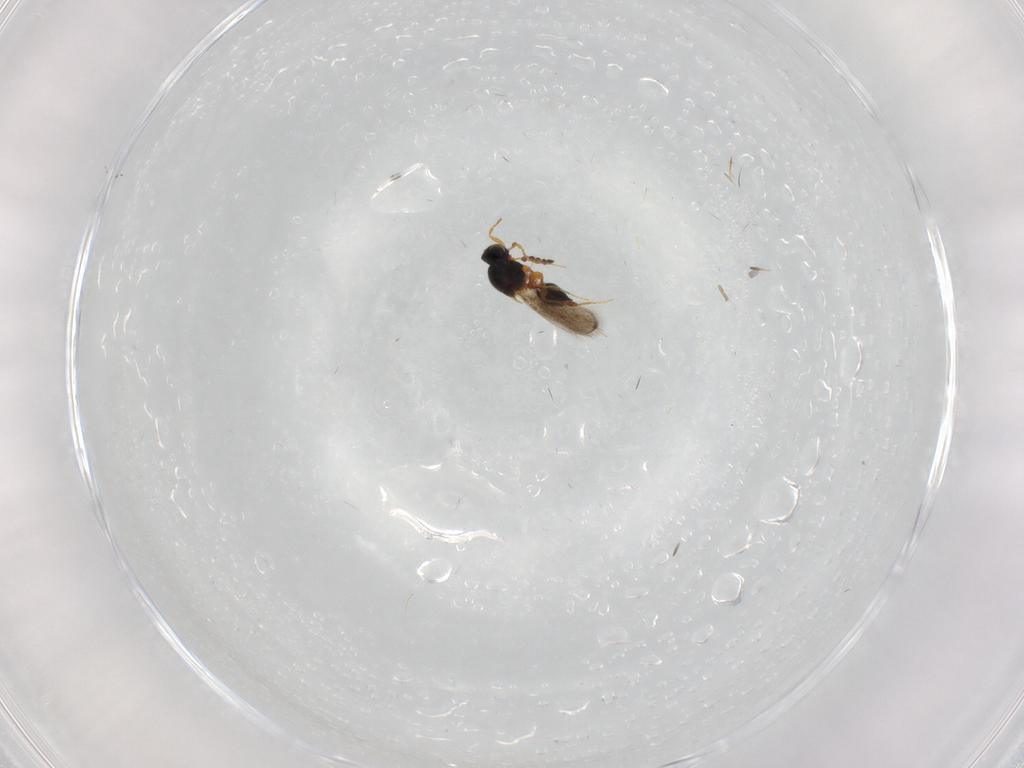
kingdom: Animalia
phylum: Arthropoda
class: Insecta
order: Hymenoptera
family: Platygastridae
